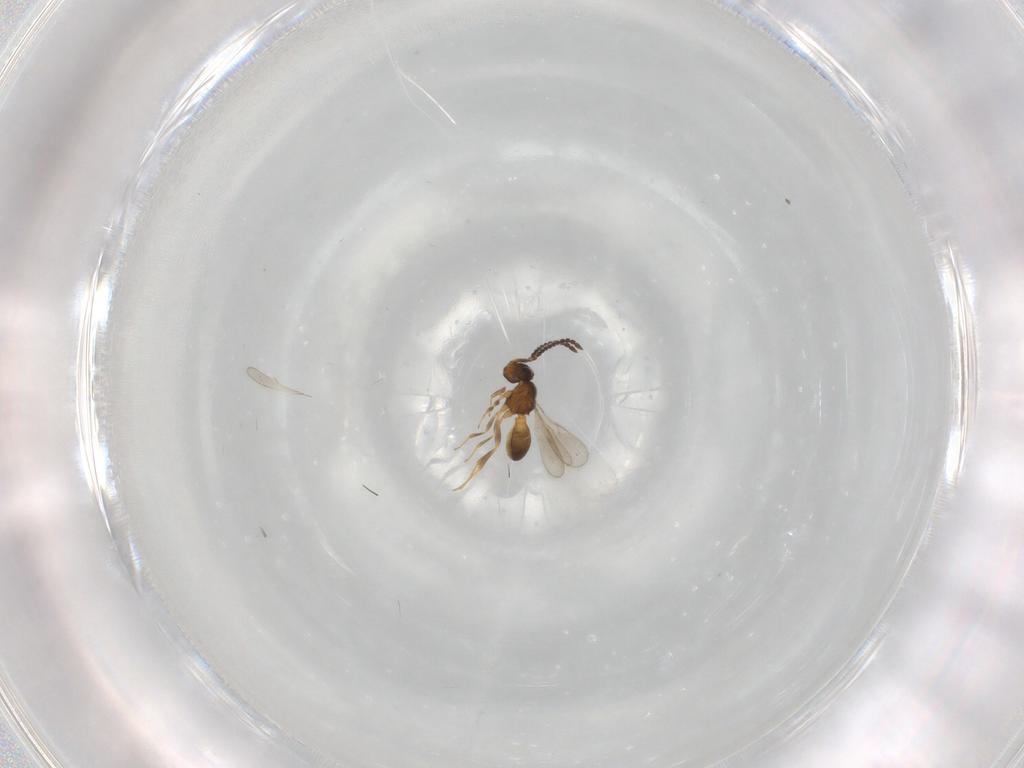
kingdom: Animalia
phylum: Arthropoda
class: Insecta
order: Hymenoptera
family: Scelionidae
